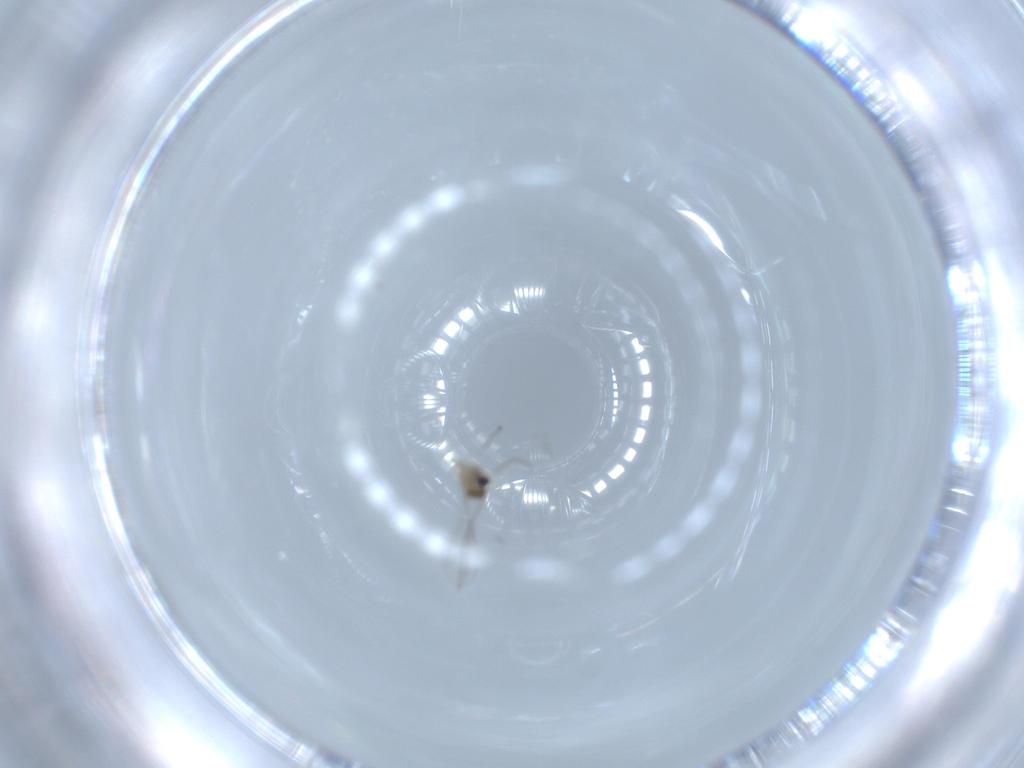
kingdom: Animalia
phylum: Arthropoda
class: Insecta
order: Diptera
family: Cecidomyiidae
